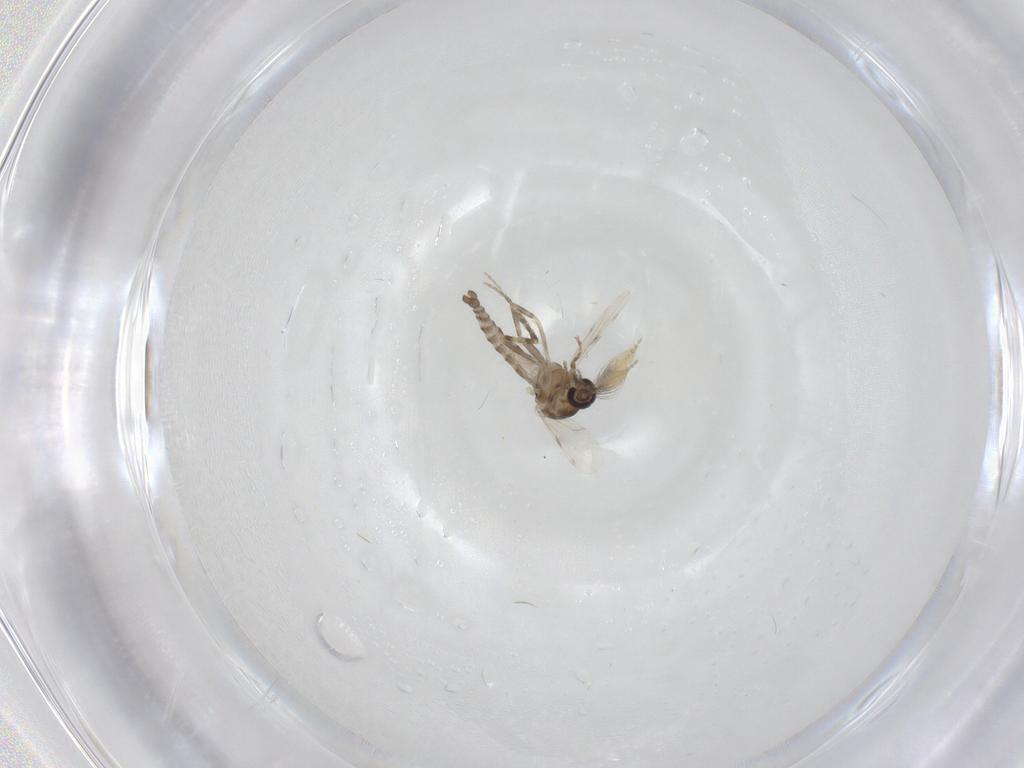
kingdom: Animalia
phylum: Arthropoda
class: Insecta
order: Diptera
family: Ceratopogonidae
